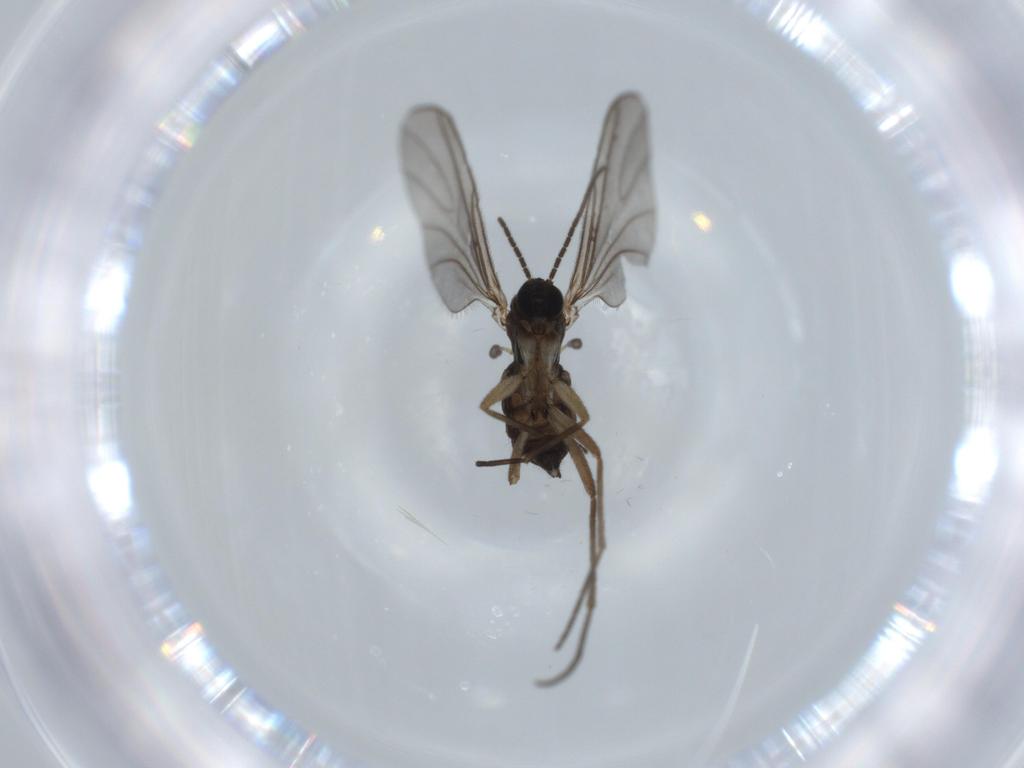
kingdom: Animalia
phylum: Arthropoda
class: Insecta
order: Diptera
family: Sciaridae
